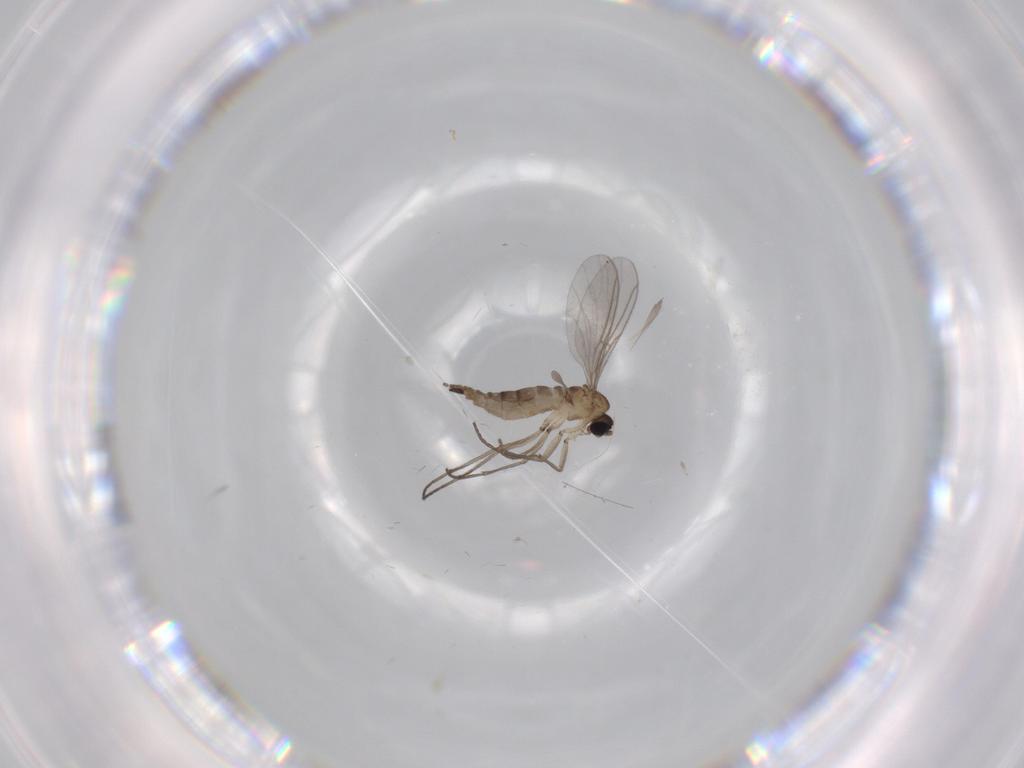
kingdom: Animalia
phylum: Arthropoda
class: Insecta
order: Diptera
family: Sciaridae
